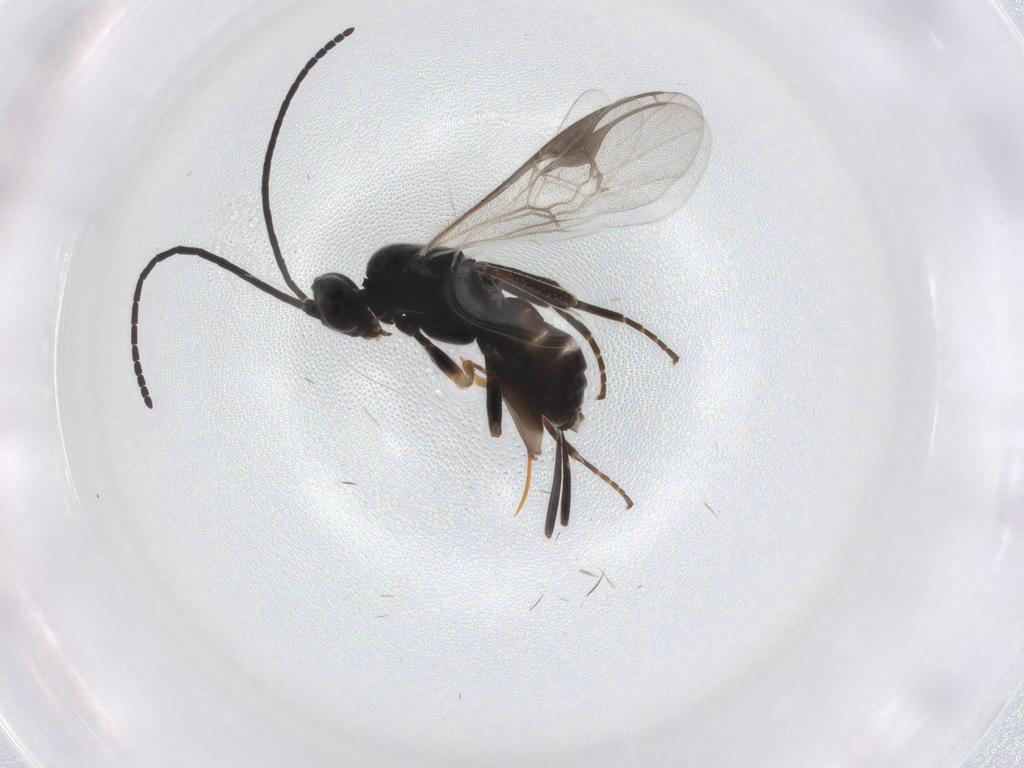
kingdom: Animalia
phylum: Arthropoda
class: Insecta
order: Hymenoptera
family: Braconidae
